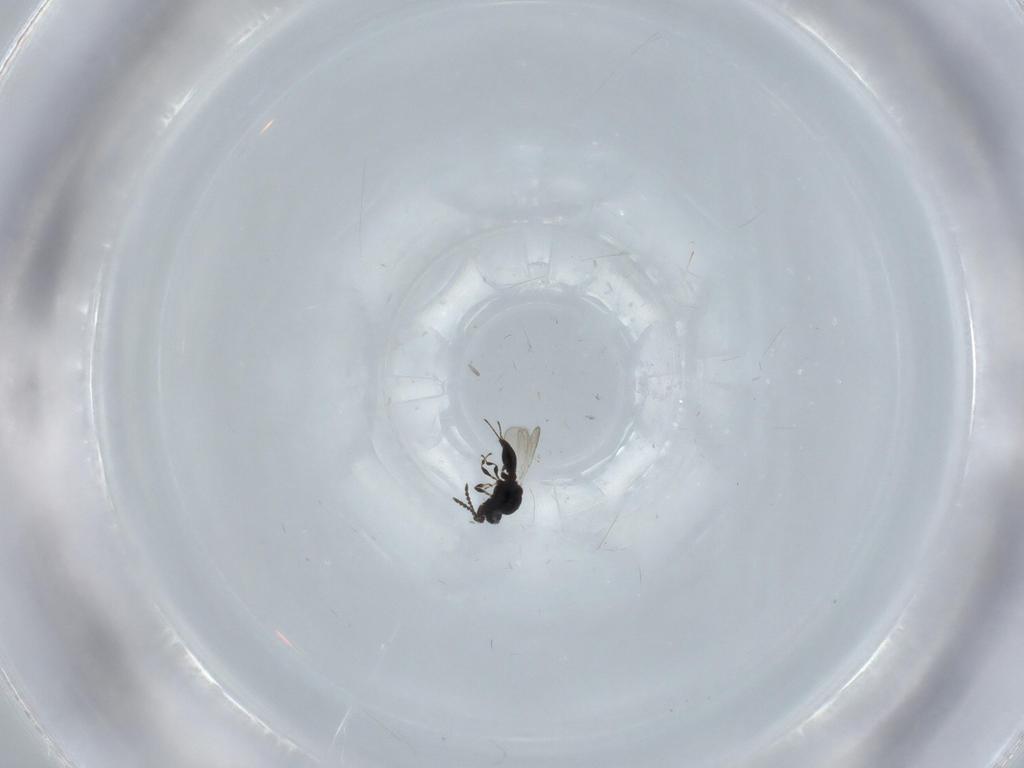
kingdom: Animalia
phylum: Arthropoda
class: Insecta
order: Hymenoptera
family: Platygastridae
